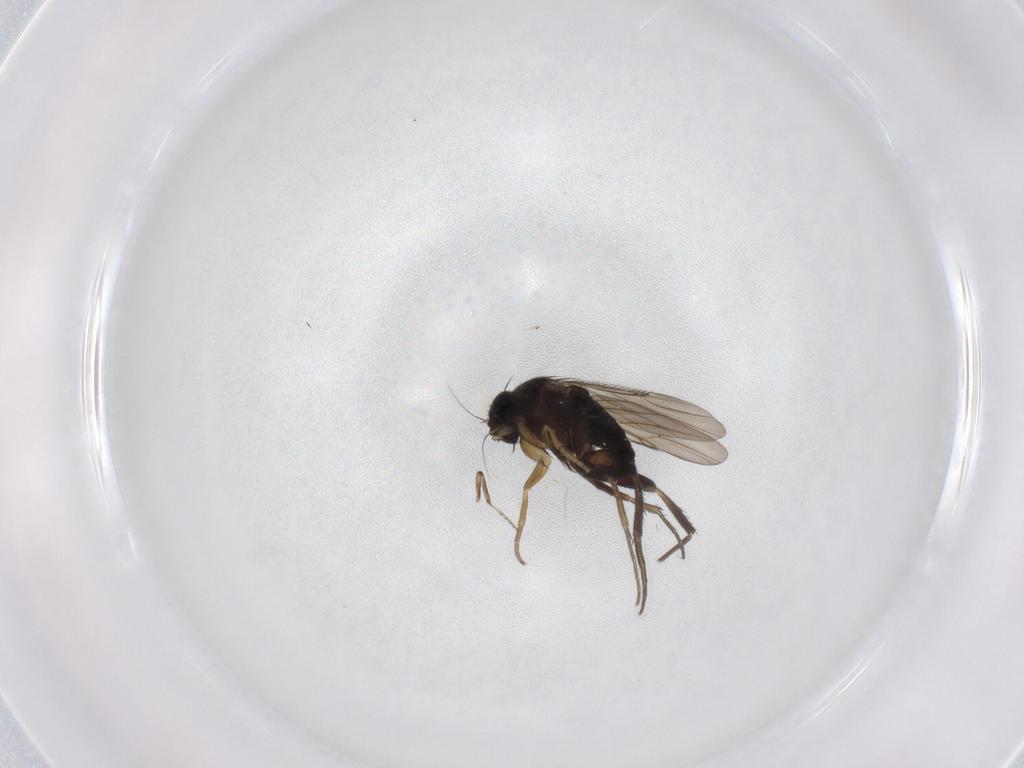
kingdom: Animalia
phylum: Arthropoda
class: Insecta
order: Diptera
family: Phoridae
